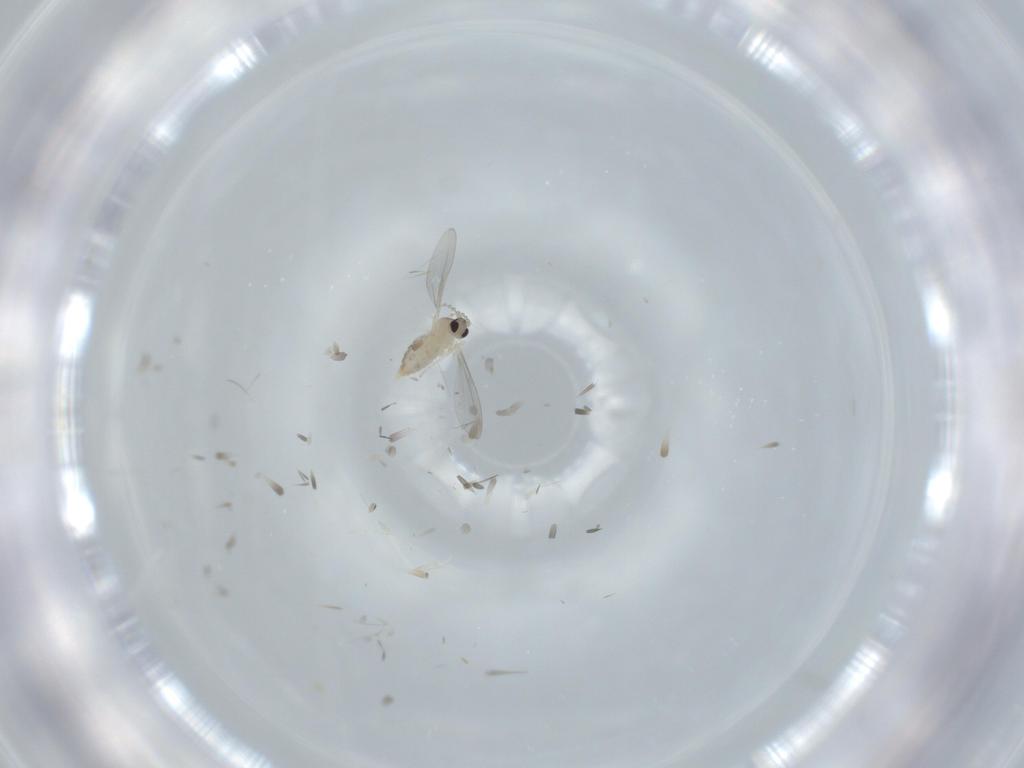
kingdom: Animalia
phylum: Arthropoda
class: Insecta
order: Diptera
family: Cecidomyiidae
